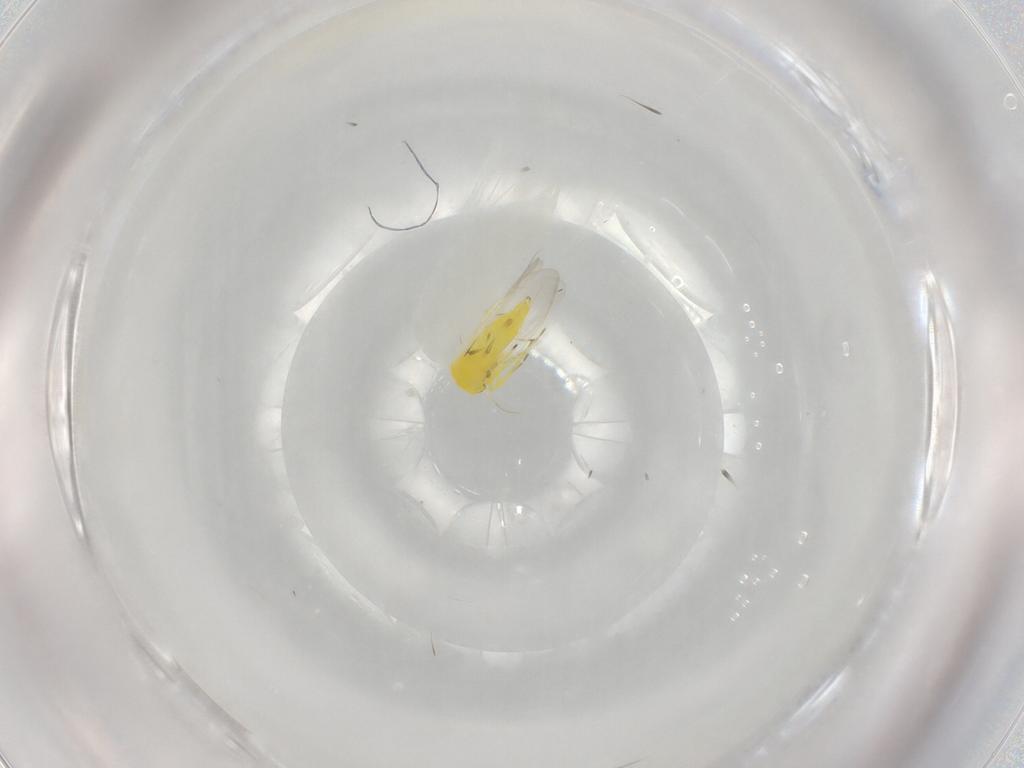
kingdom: Animalia
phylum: Arthropoda
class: Insecta
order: Hemiptera
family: Aleyrodidae
